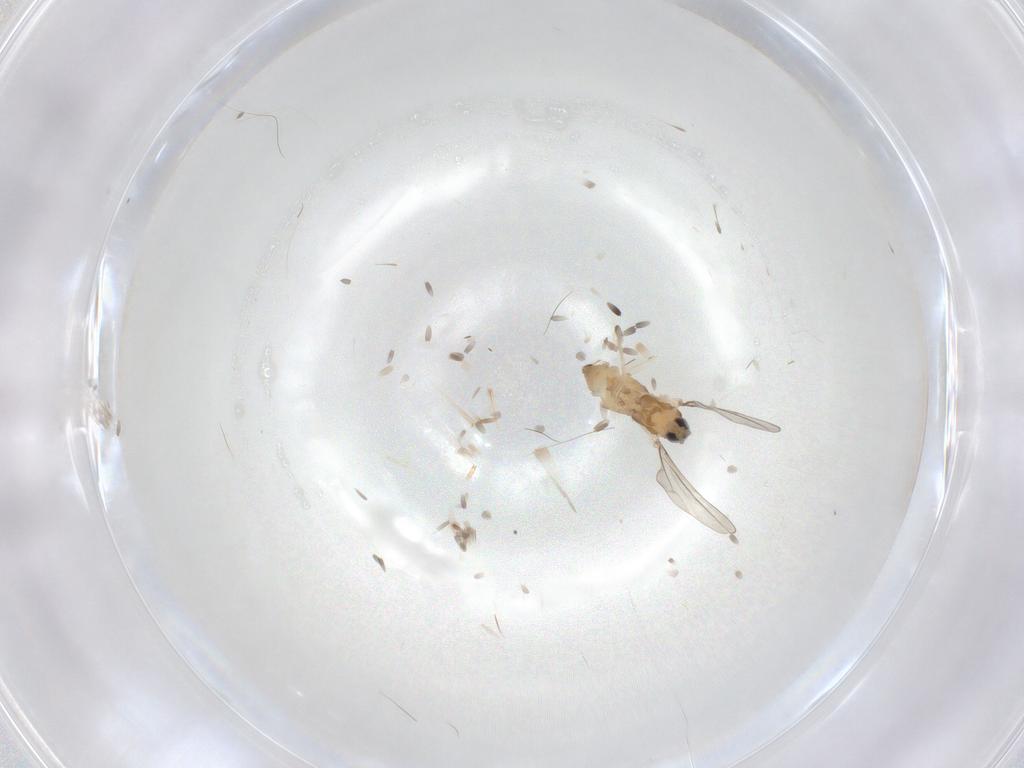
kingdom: Animalia
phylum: Arthropoda
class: Insecta
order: Diptera
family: Cecidomyiidae
